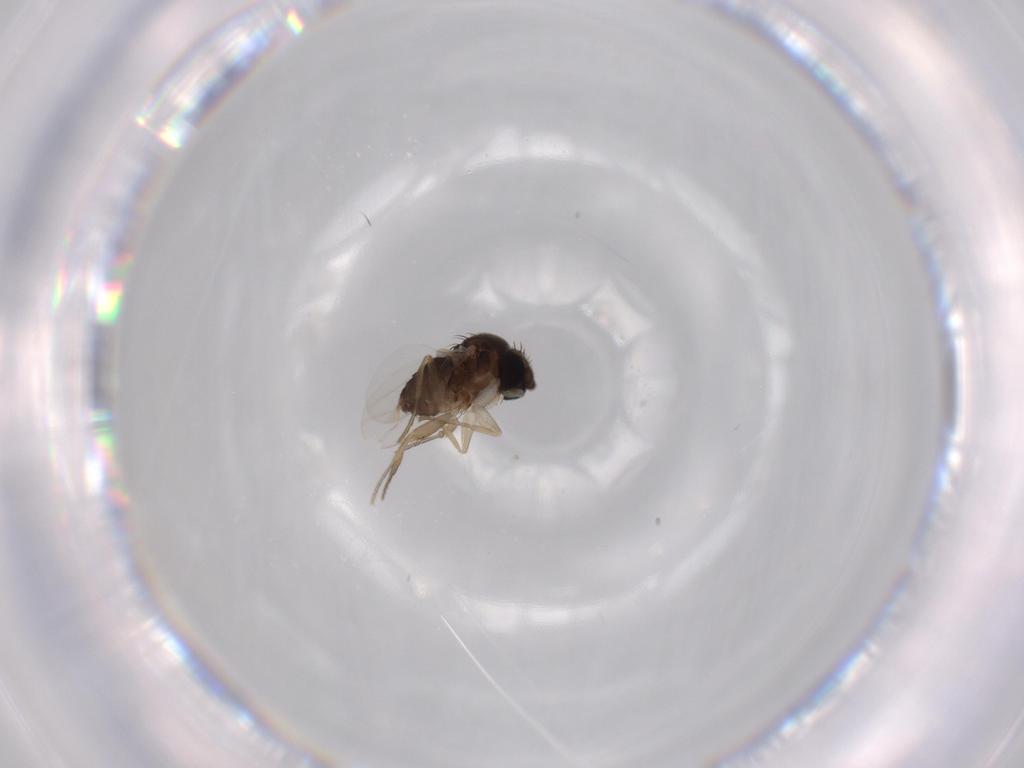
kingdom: Animalia
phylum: Arthropoda
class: Insecta
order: Diptera
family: Phoridae
